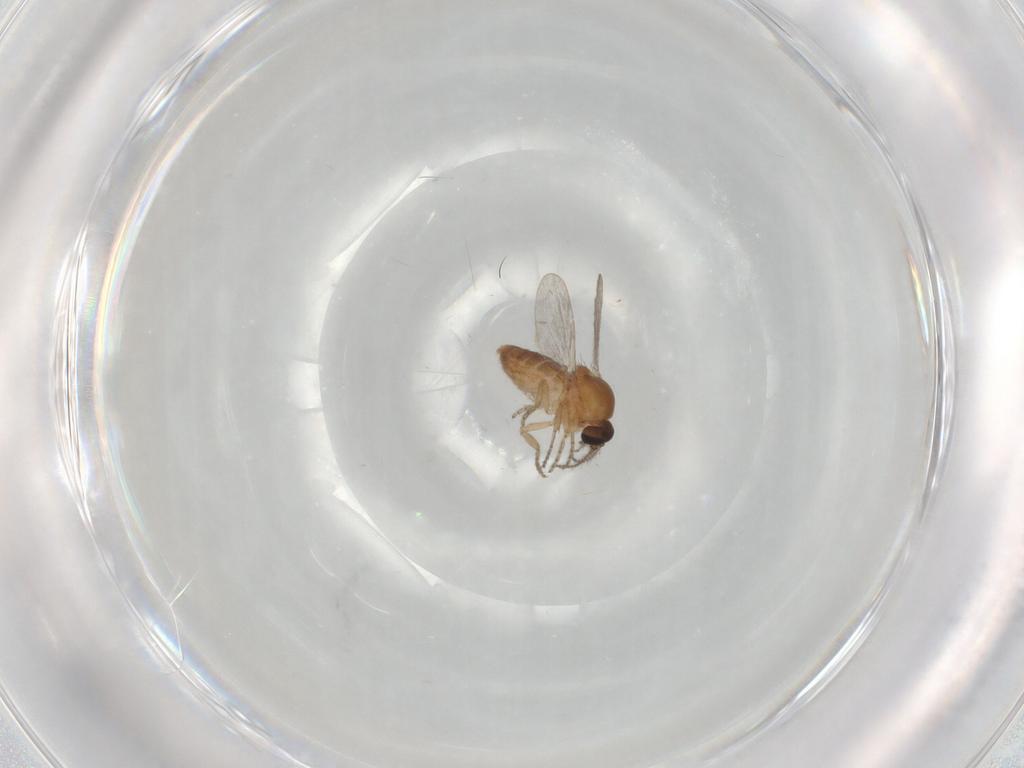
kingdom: Animalia
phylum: Arthropoda
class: Insecta
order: Diptera
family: Ceratopogonidae
